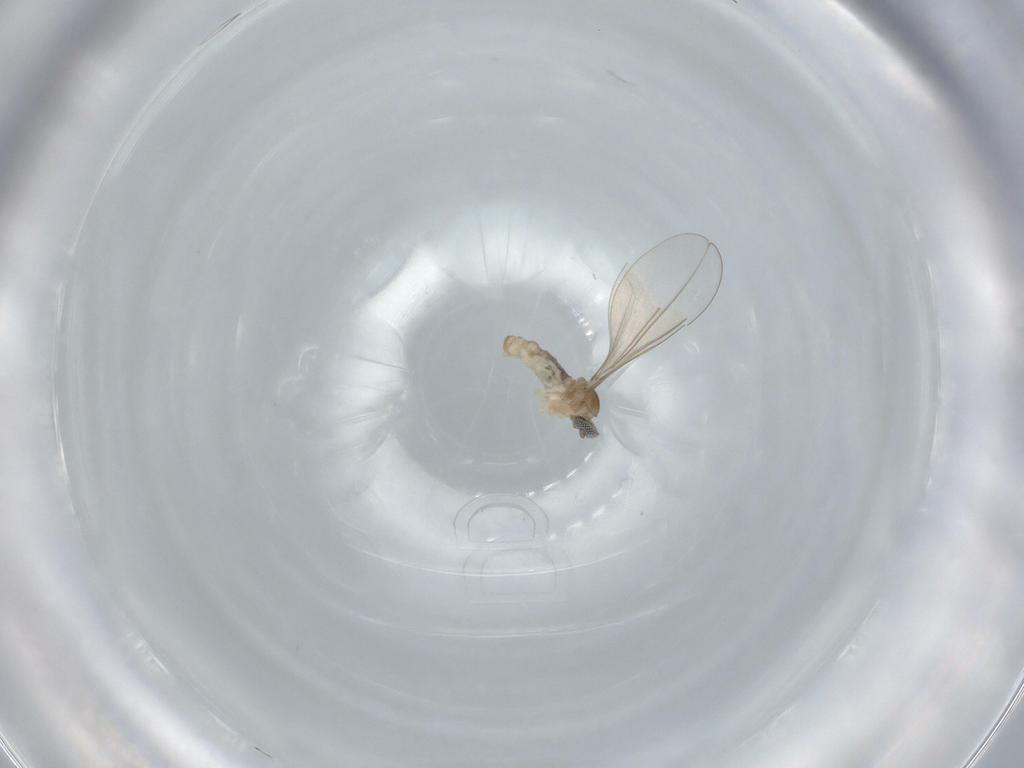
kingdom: Animalia
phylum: Arthropoda
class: Insecta
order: Diptera
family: Cecidomyiidae
